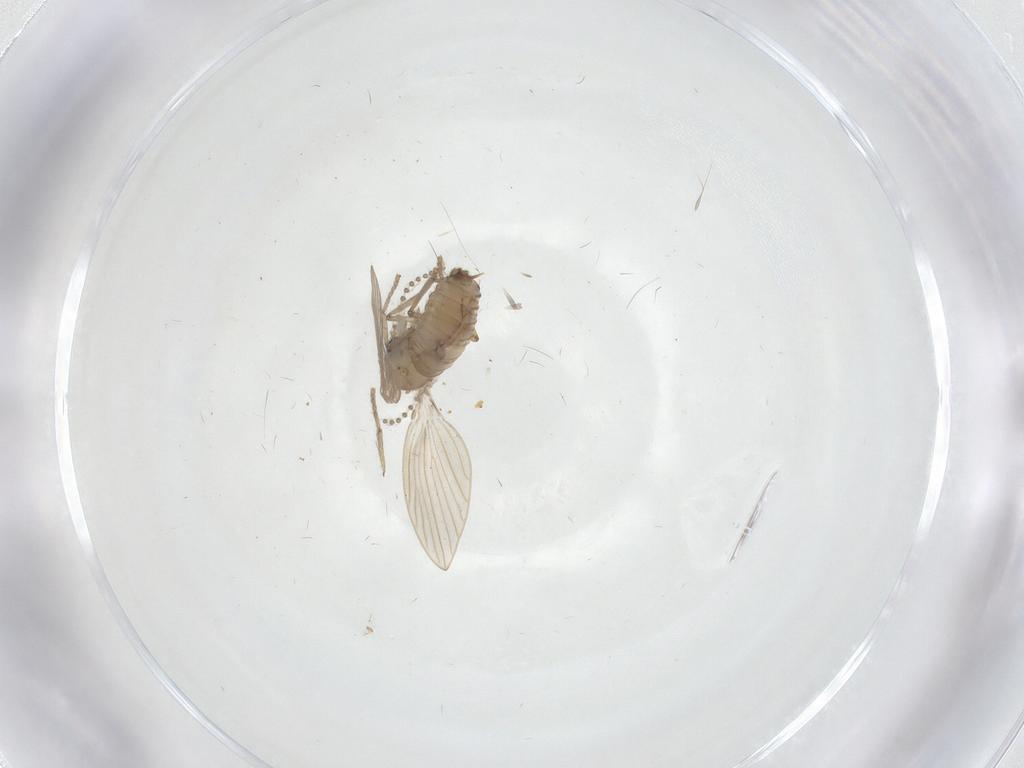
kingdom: Animalia
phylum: Arthropoda
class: Insecta
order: Diptera
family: Psychodidae
